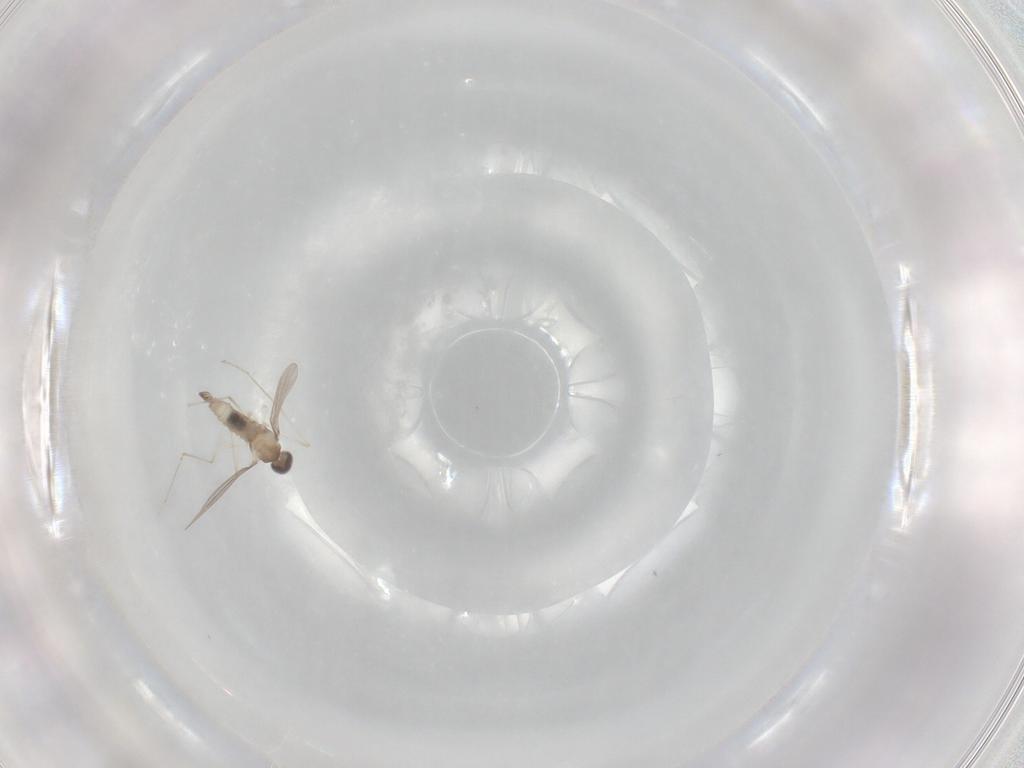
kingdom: Animalia
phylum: Arthropoda
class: Insecta
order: Diptera
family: Cecidomyiidae
